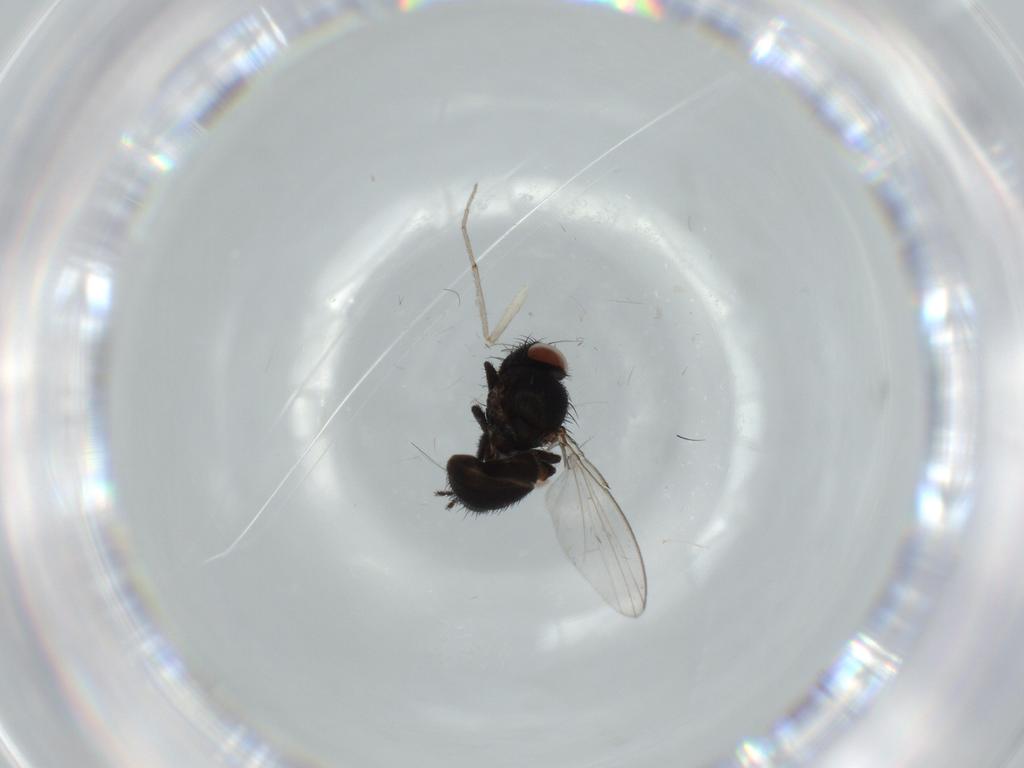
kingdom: Animalia
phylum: Arthropoda
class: Insecta
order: Diptera
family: Milichiidae
